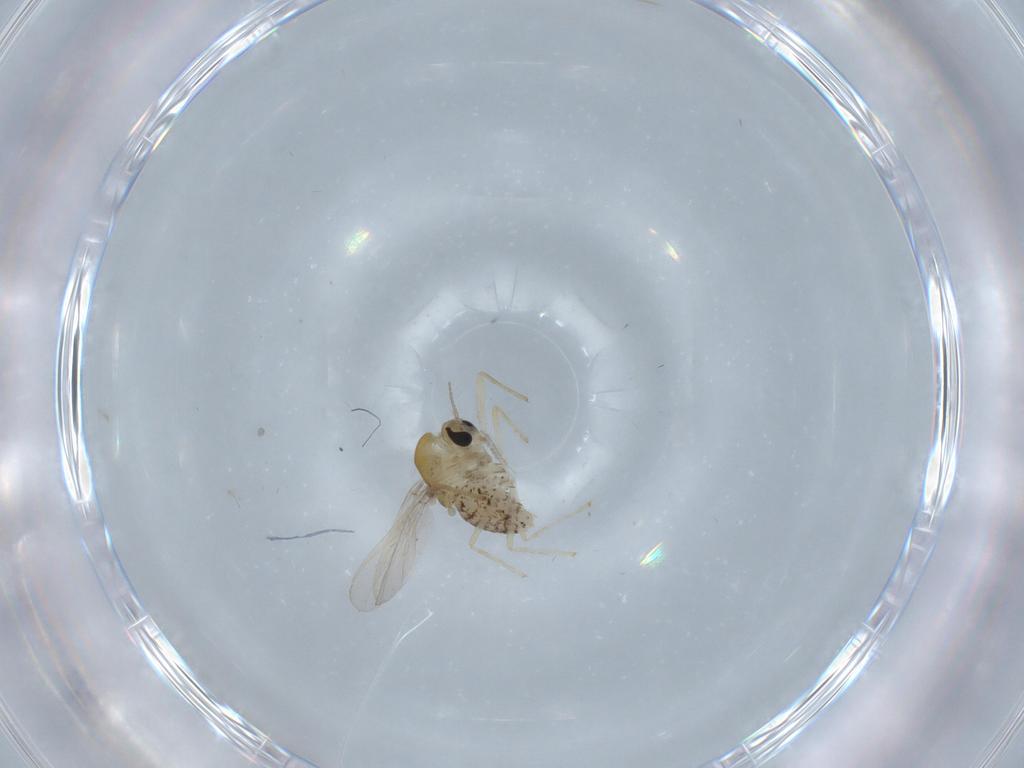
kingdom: Animalia
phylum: Arthropoda
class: Insecta
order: Diptera
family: Chironomidae
